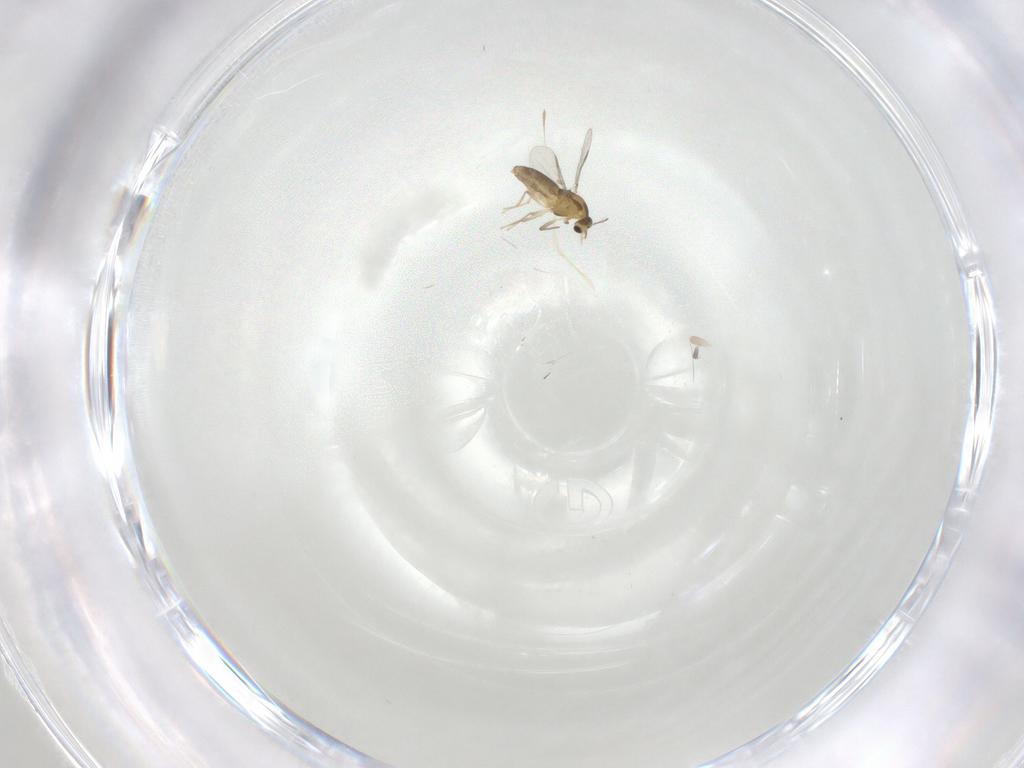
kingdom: Animalia
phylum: Arthropoda
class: Insecta
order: Diptera
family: Chironomidae
